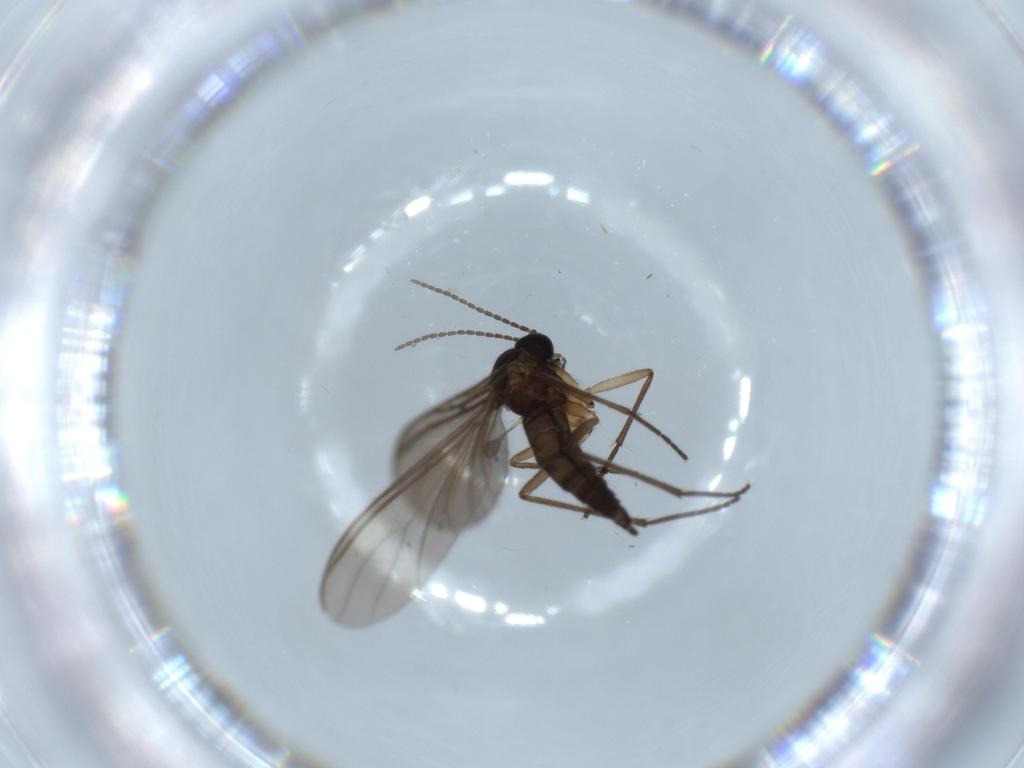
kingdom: Animalia
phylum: Arthropoda
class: Insecta
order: Diptera
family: Sciaridae
